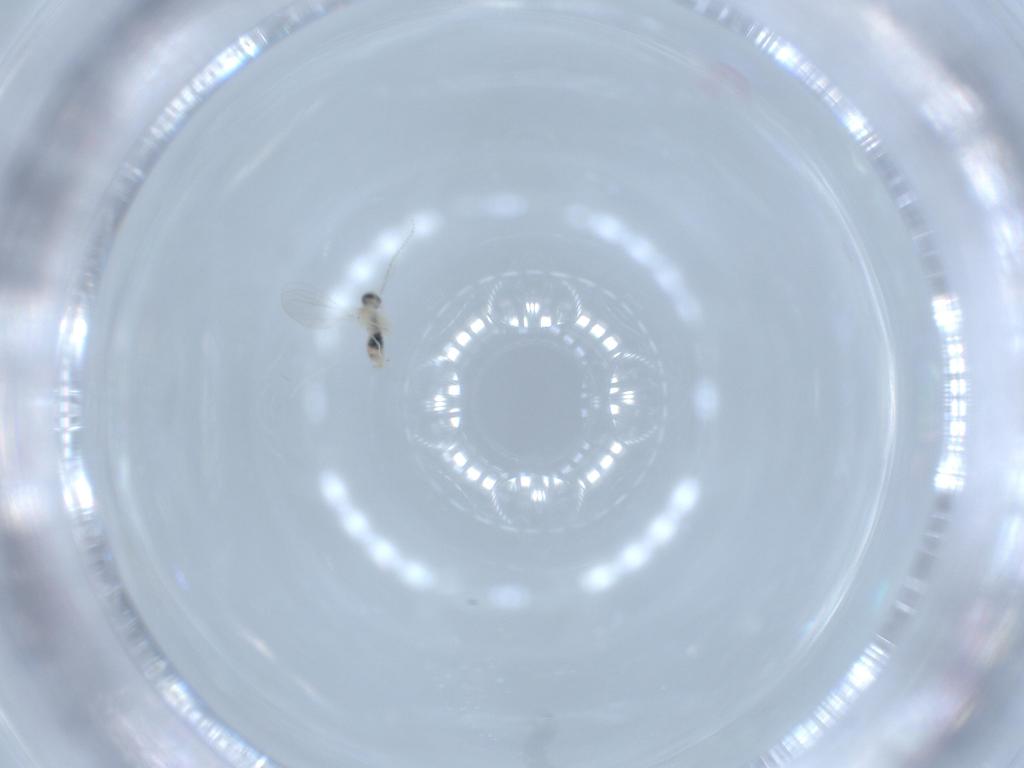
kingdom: Animalia
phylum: Arthropoda
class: Insecta
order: Diptera
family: Cecidomyiidae
